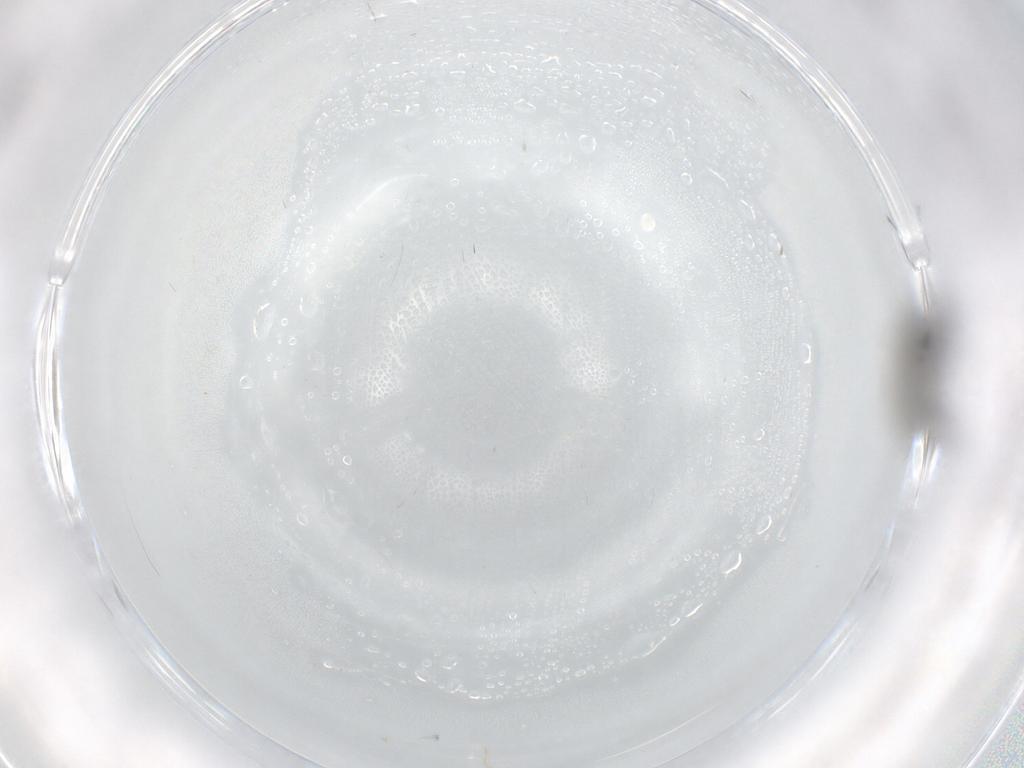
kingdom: Animalia
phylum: Arthropoda
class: Insecta
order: Diptera
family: Sciaridae
